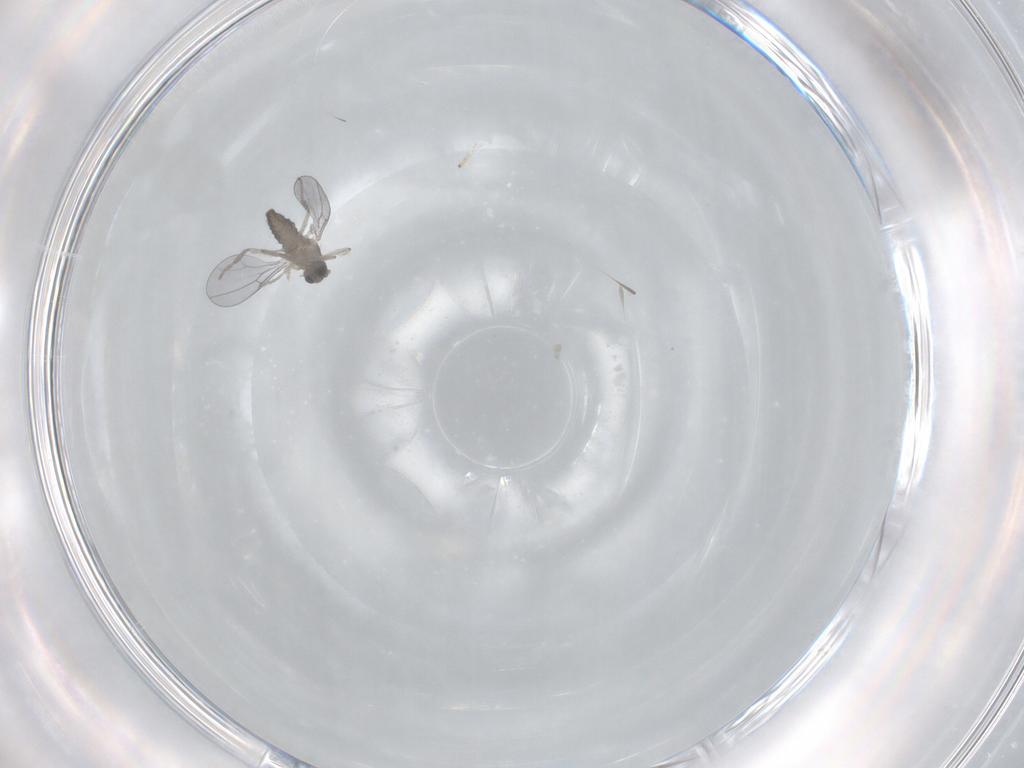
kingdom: Animalia
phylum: Arthropoda
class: Insecta
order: Diptera
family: Cecidomyiidae
